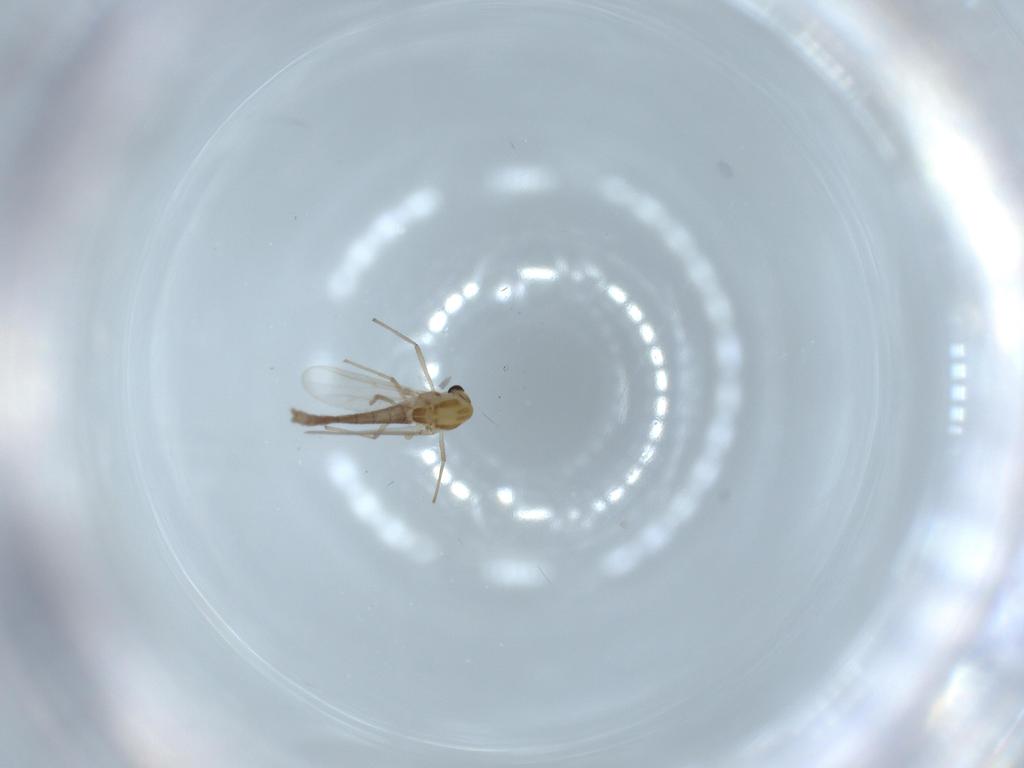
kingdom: Animalia
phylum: Arthropoda
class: Insecta
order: Diptera
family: Chironomidae
